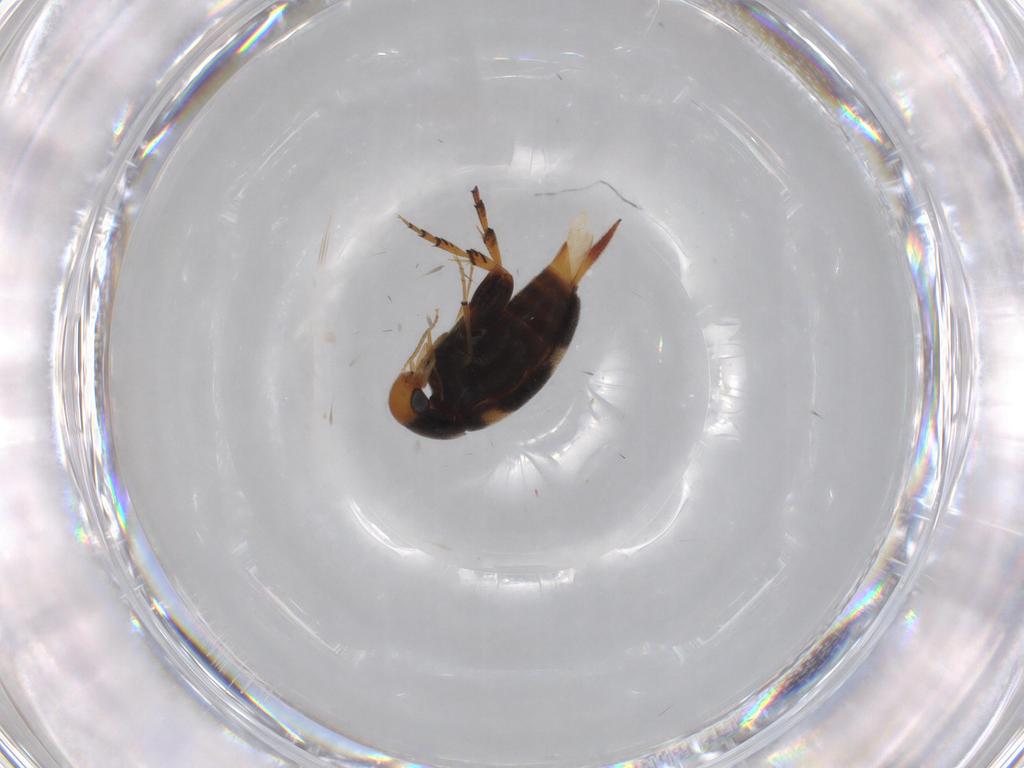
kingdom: Animalia
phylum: Arthropoda
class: Insecta
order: Coleoptera
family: Mordellidae
